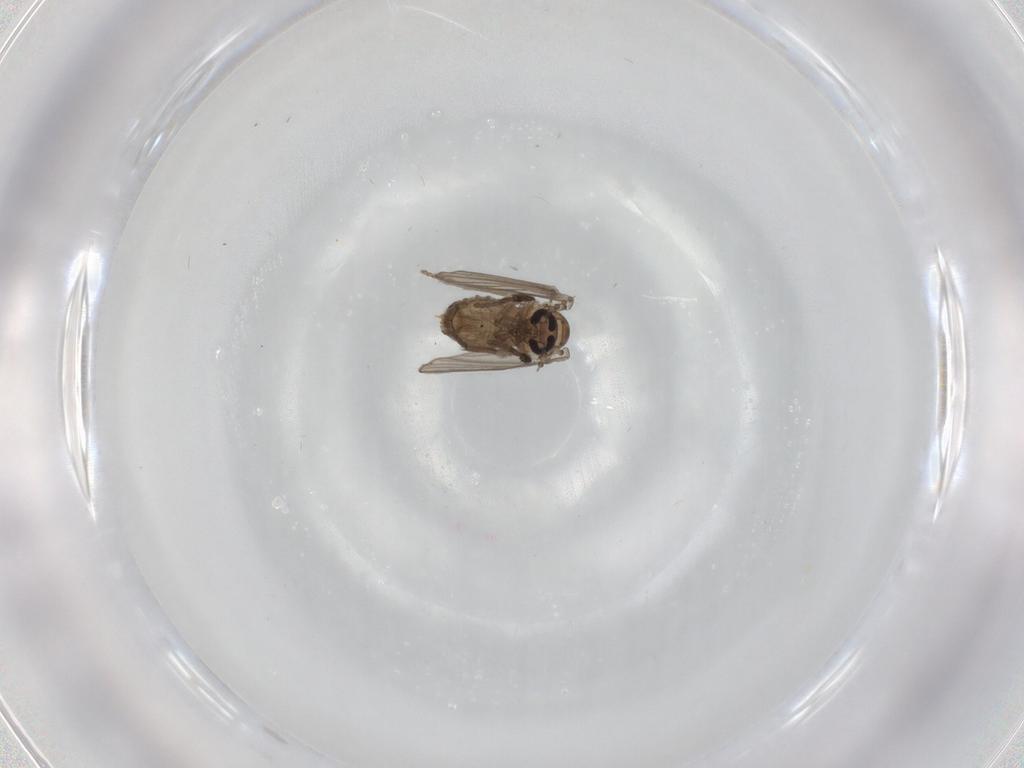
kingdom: Animalia
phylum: Arthropoda
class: Insecta
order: Diptera
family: Psychodidae
